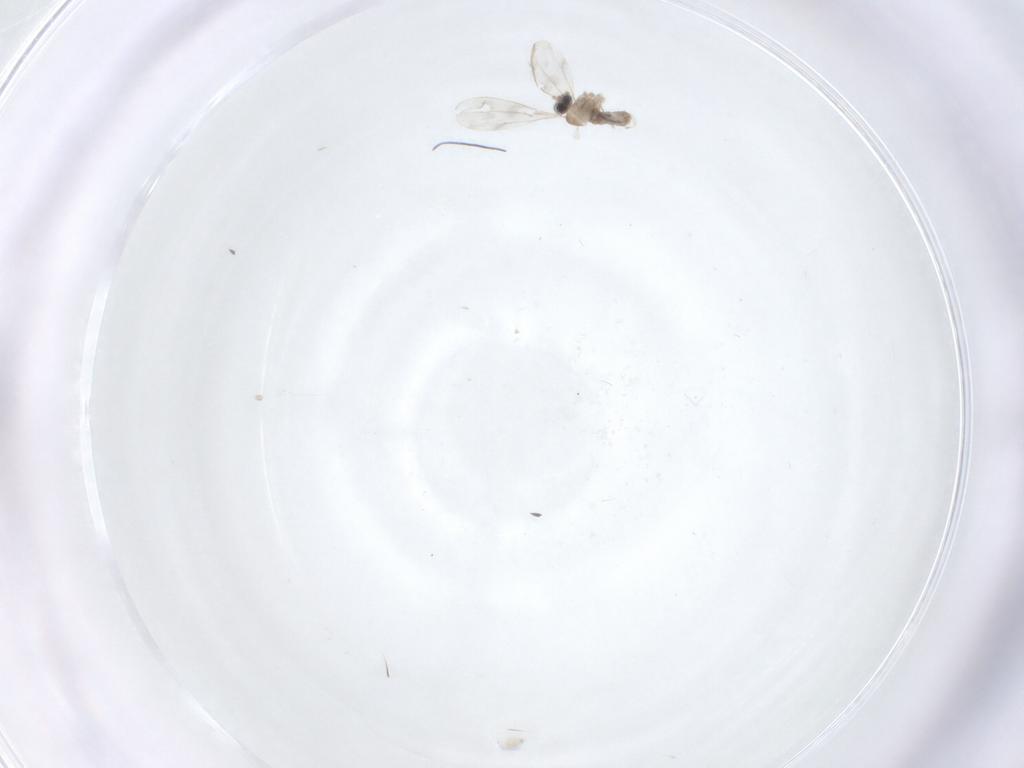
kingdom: Animalia
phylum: Arthropoda
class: Insecta
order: Diptera
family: Cecidomyiidae
